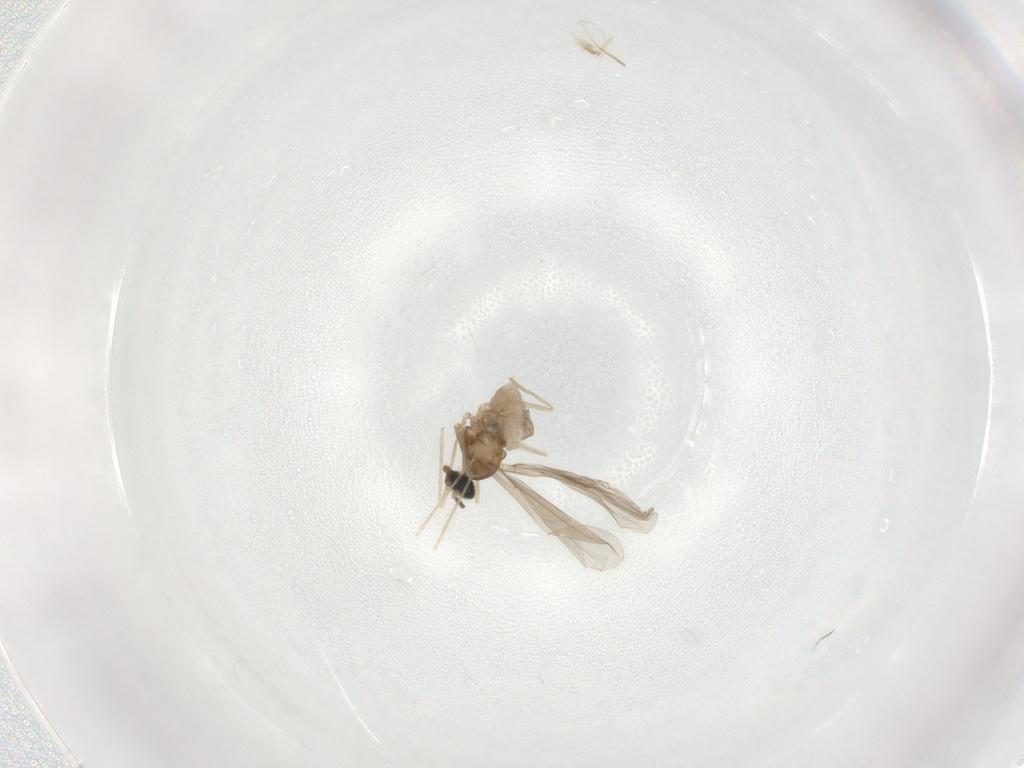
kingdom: Animalia
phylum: Arthropoda
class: Insecta
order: Diptera
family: Cecidomyiidae
